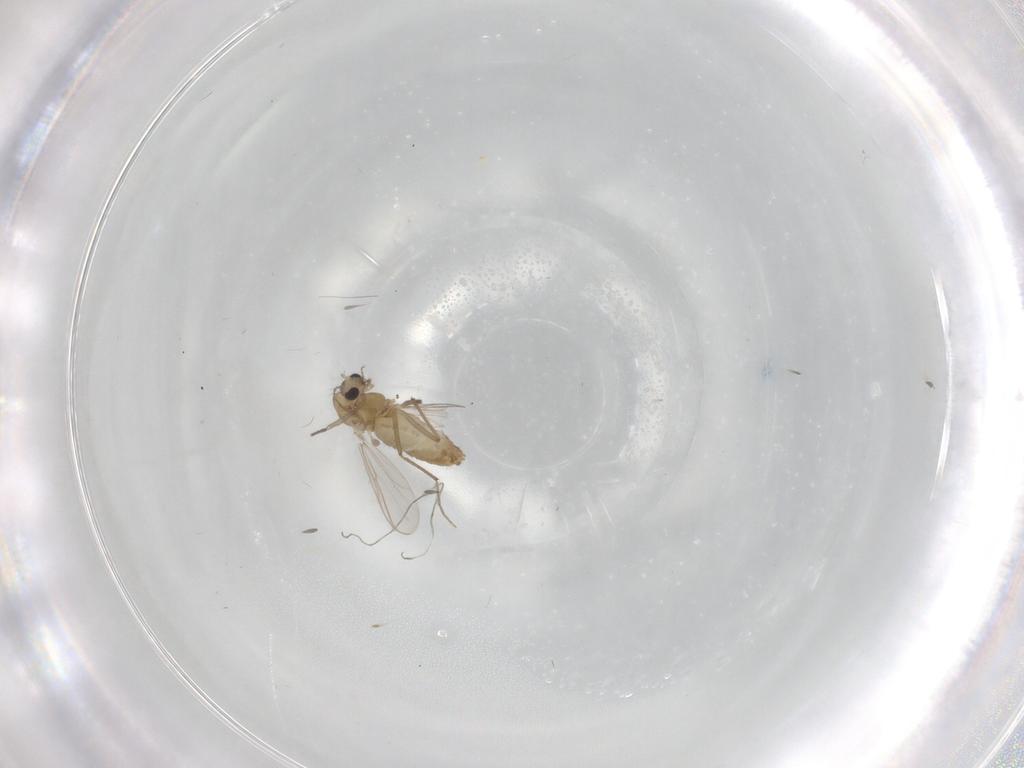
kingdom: Animalia
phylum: Arthropoda
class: Insecta
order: Diptera
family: Chironomidae
